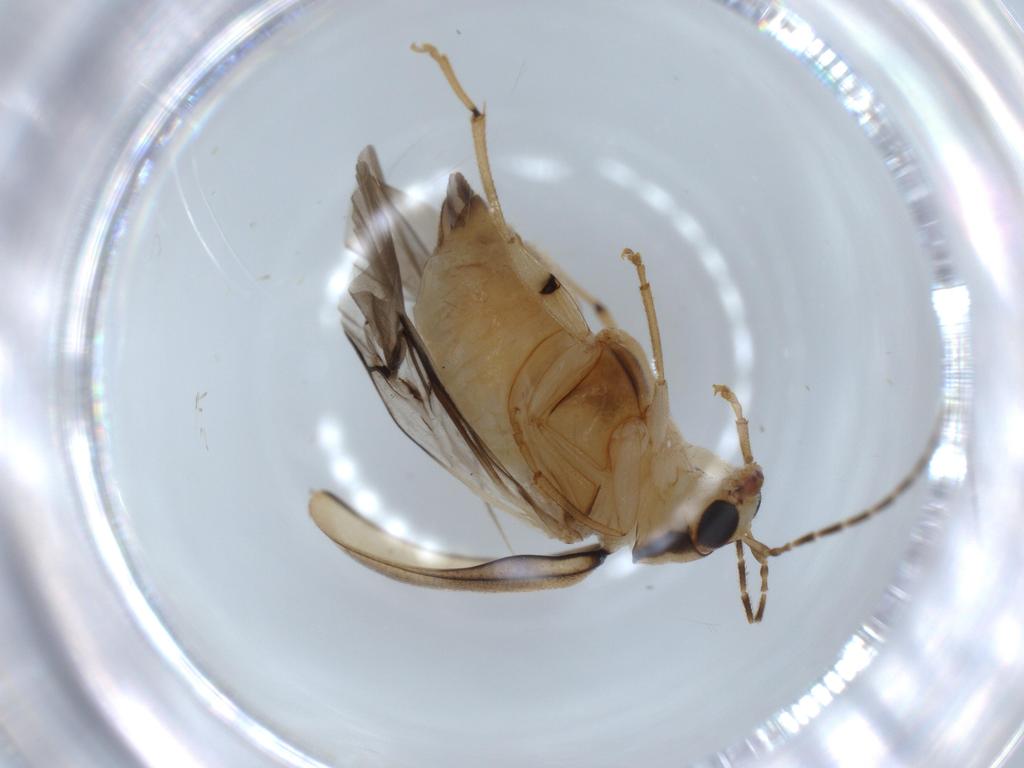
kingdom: Animalia
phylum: Arthropoda
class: Insecta
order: Coleoptera
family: Chrysomelidae
